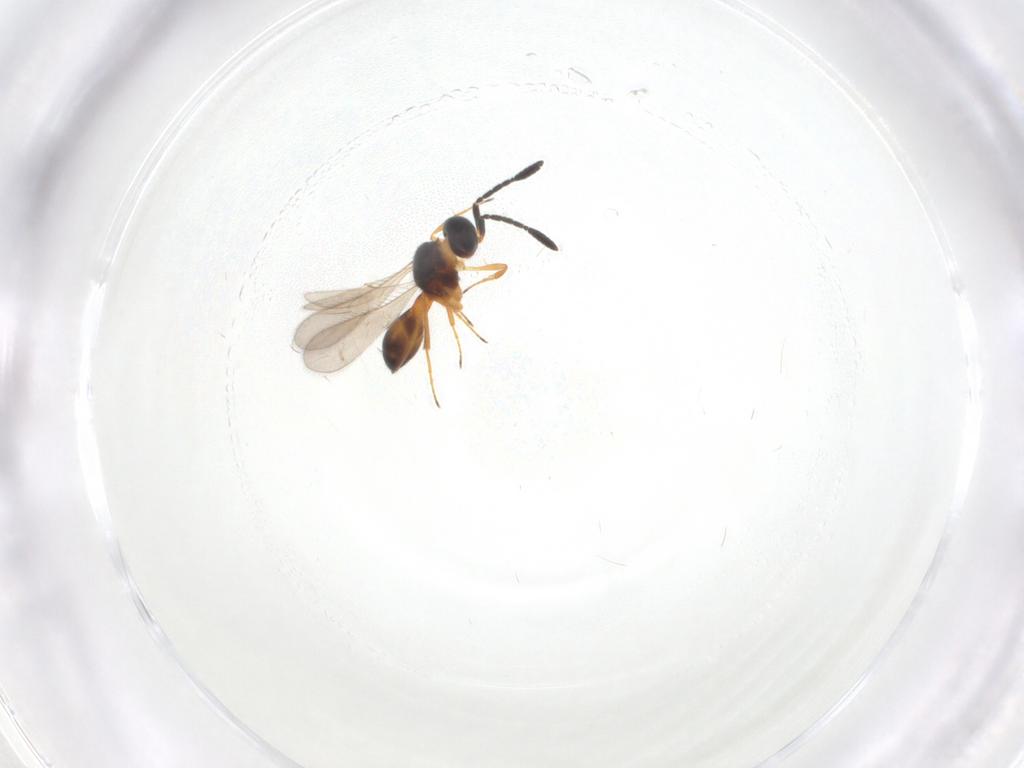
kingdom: Animalia
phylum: Arthropoda
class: Insecta
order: Hymenoptera
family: Scelionidae
